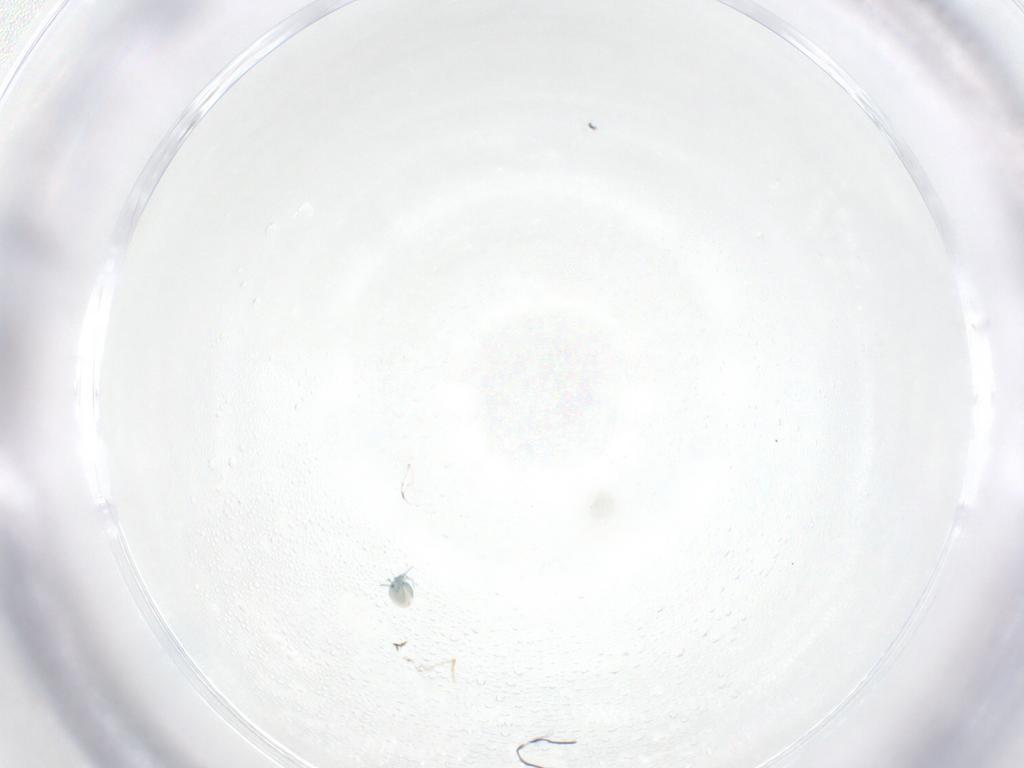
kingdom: Animalia
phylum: Arthropoda
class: Arachnida
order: Trombidiformes
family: Arrenuridae
